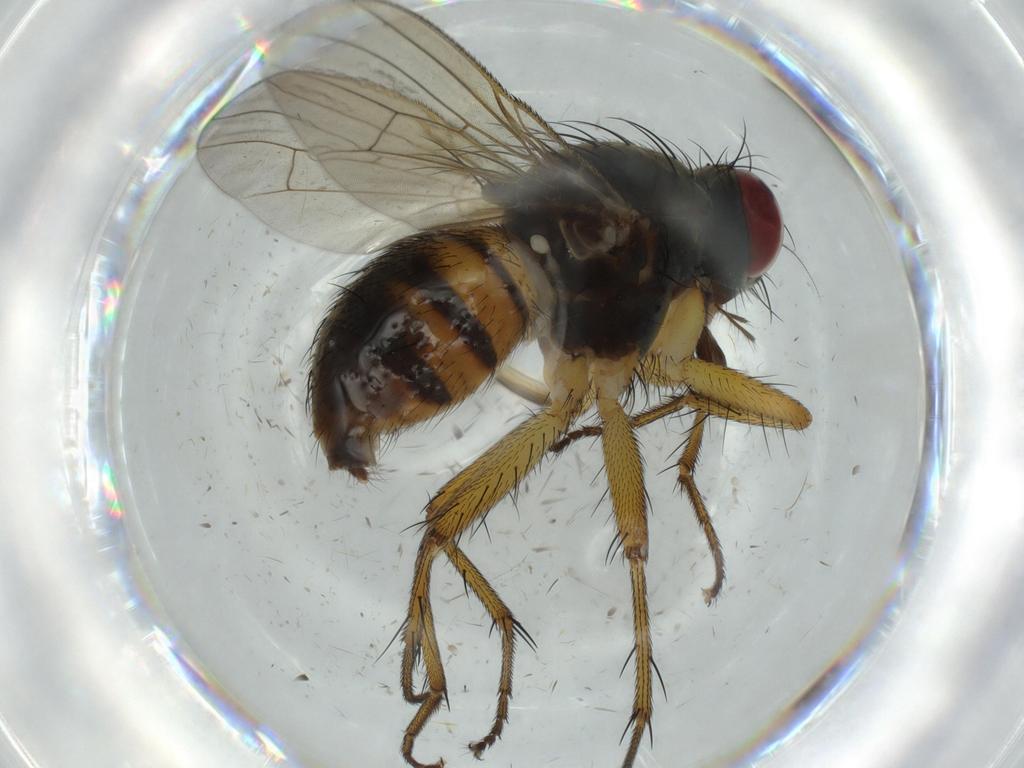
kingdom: Animalia
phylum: Arthropoda
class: Insecta
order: Diptera
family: Muscidae
